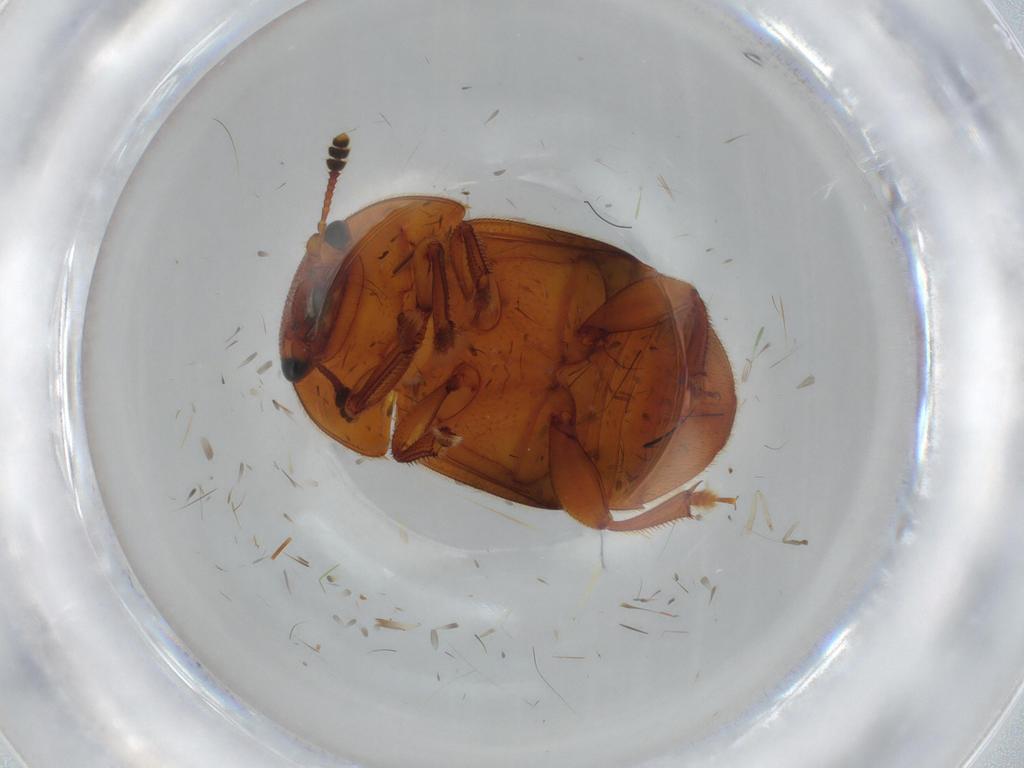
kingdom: Animalia
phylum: Arthropoda
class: Insecta
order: Coleoptera
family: Nitidulidae
